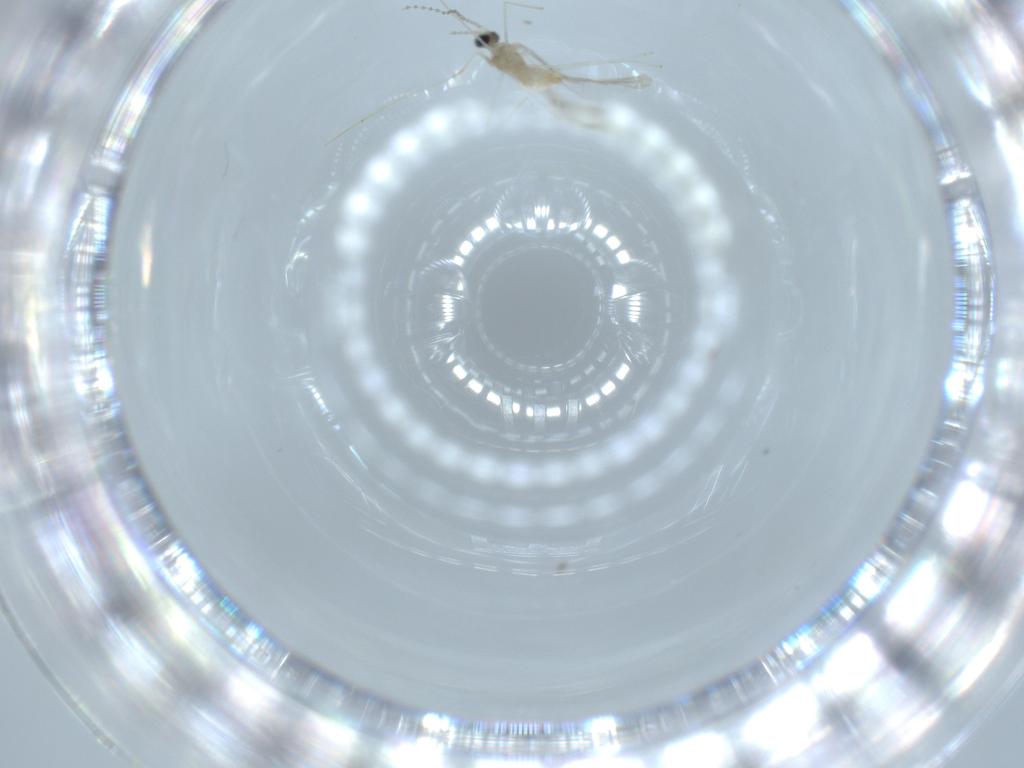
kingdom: Animalia
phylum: Arthropoda
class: Insecta
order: Diptera
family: Cecidomyiidae
